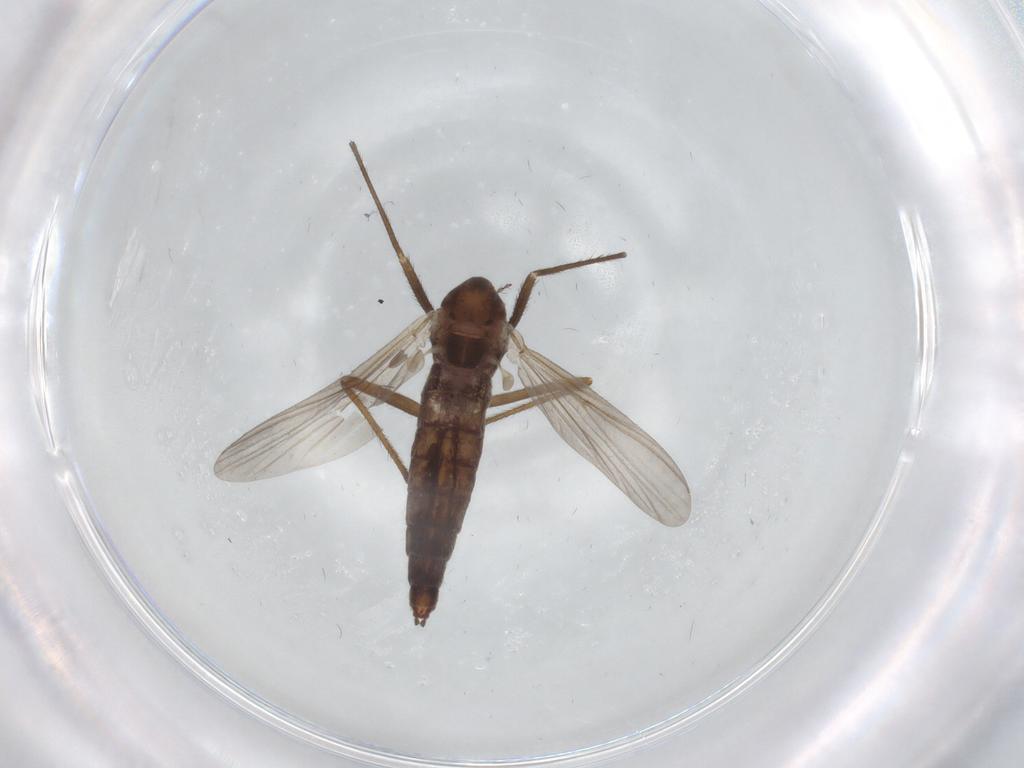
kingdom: Animalia
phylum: Arthropoda
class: Insecta
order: Diptera
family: Chironomidae
